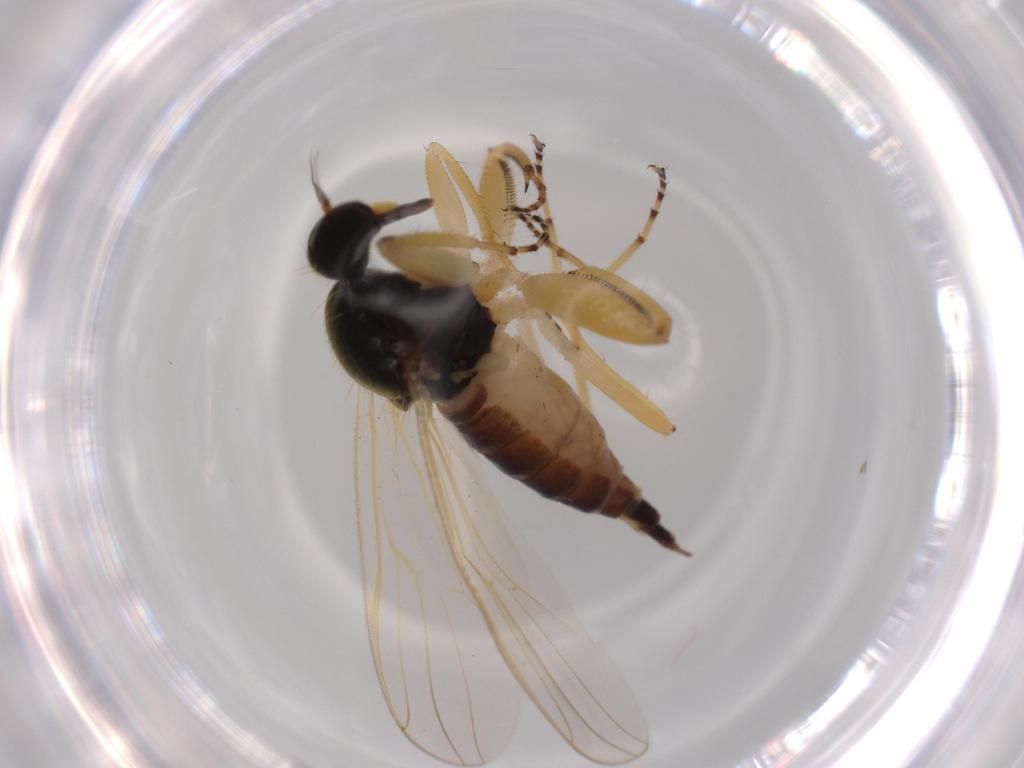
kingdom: Animalia
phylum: Arthropoda
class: Insecta
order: Diptera
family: Hybotidae
